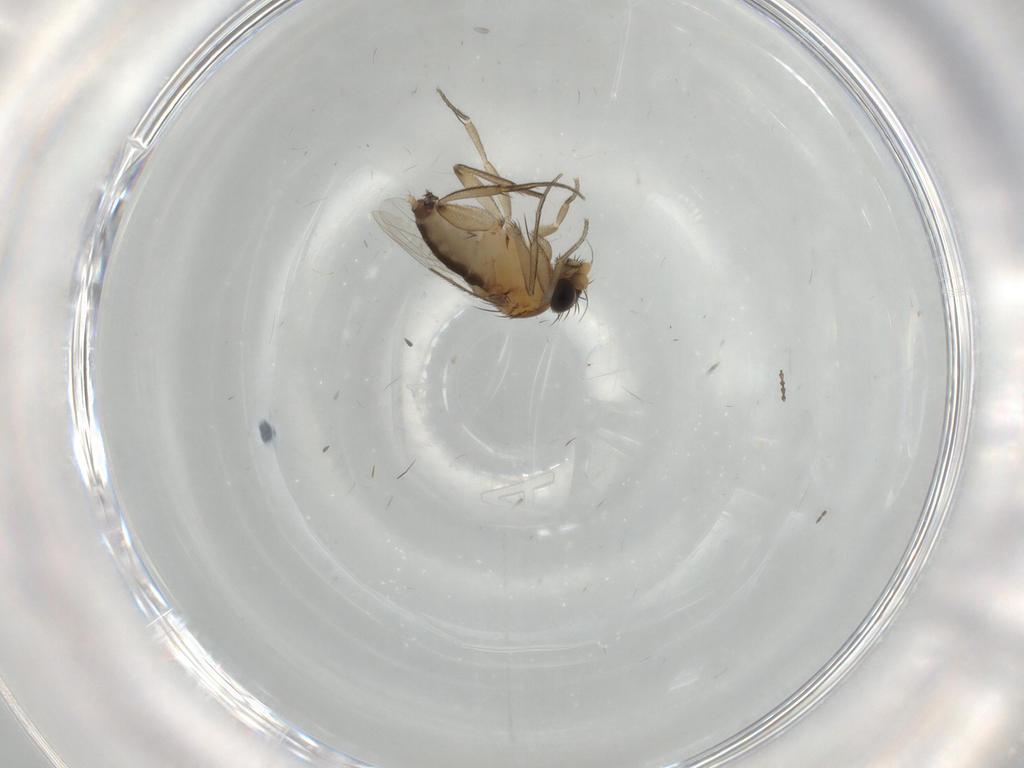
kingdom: Animalia
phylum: Arthropoda
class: Insecta
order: Diptera
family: Phoridae
